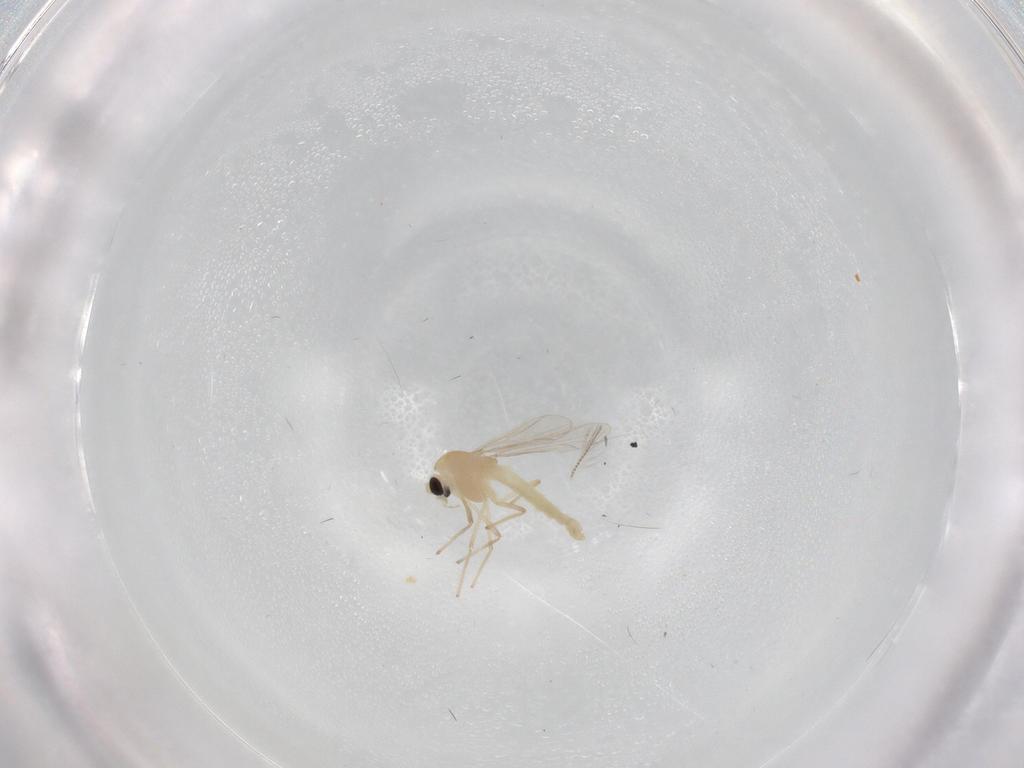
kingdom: Animalia
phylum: Arthropoda
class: Insecta
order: Diptera
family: Chironomidae
